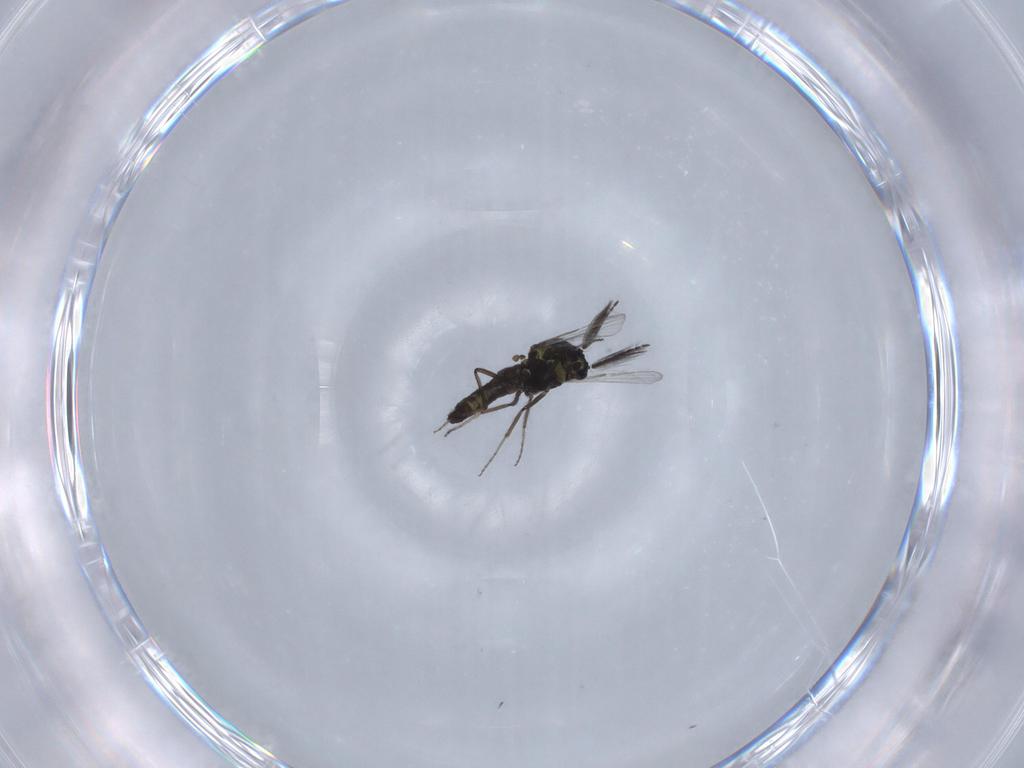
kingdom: Animalia
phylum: Arthropoda
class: Insecta
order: Diptera
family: Ceratopogonidae
